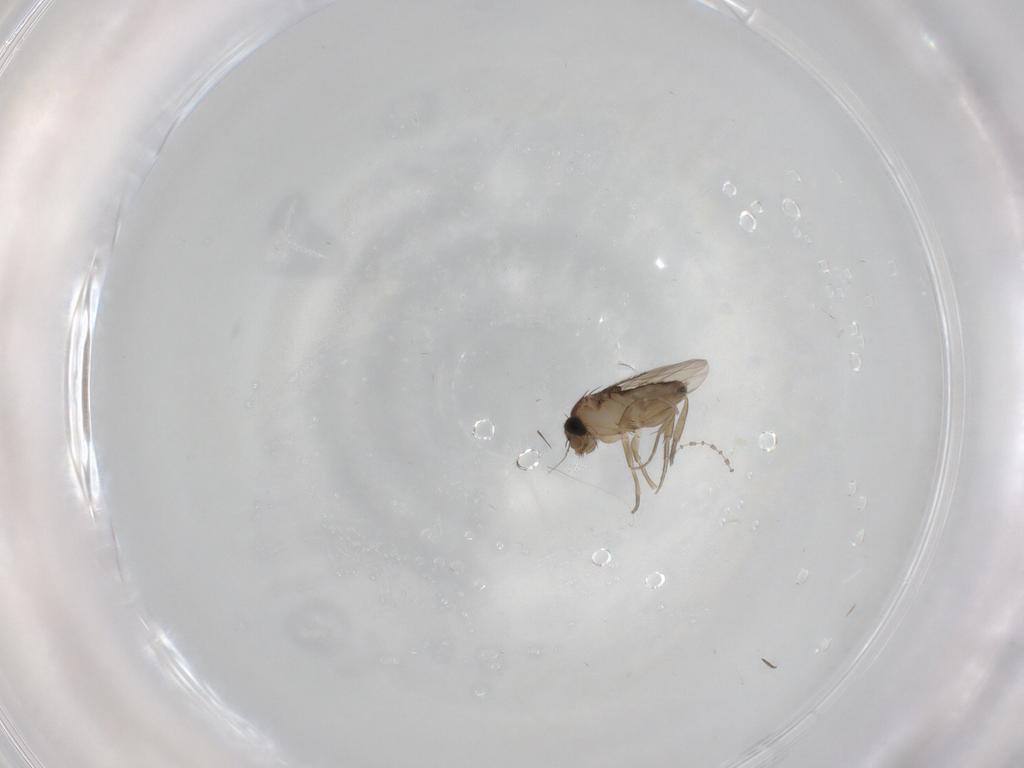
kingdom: Animalia
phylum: Arthropoda
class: Insecta
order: Diptera
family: Phoridae
